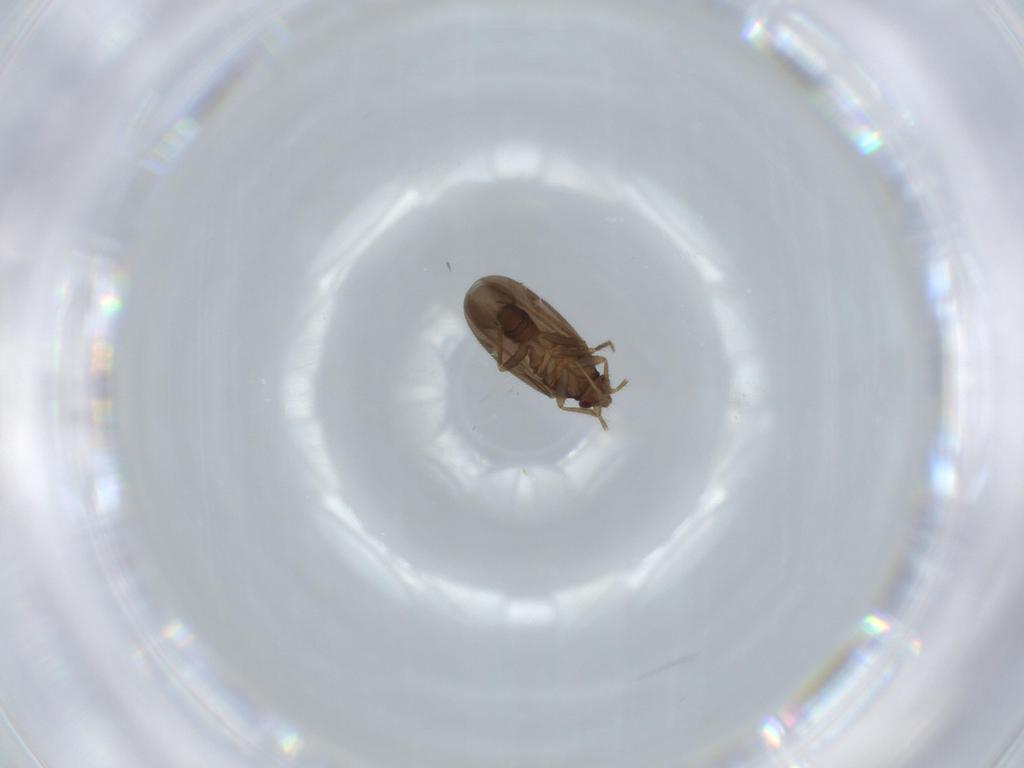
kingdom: Animalia
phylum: Arthropoda
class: Insecta
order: Hemiptera
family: Ceratocombidae
